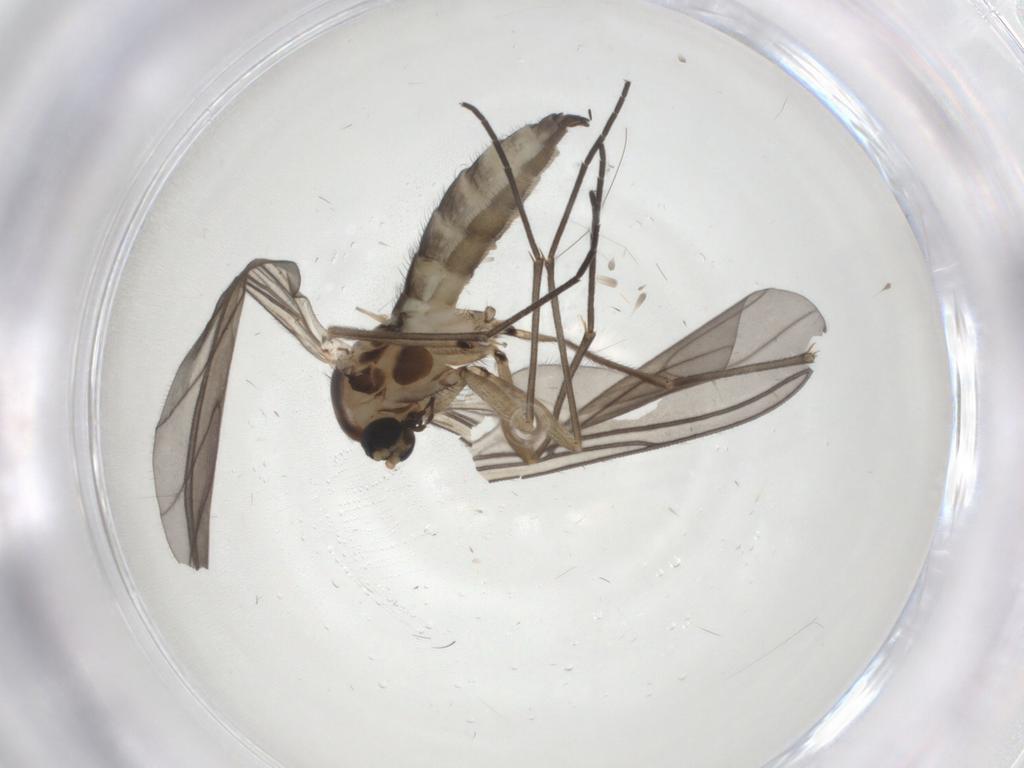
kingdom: Animalia
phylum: Arthropoda
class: Insecta
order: Diptera
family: Sciaridae
